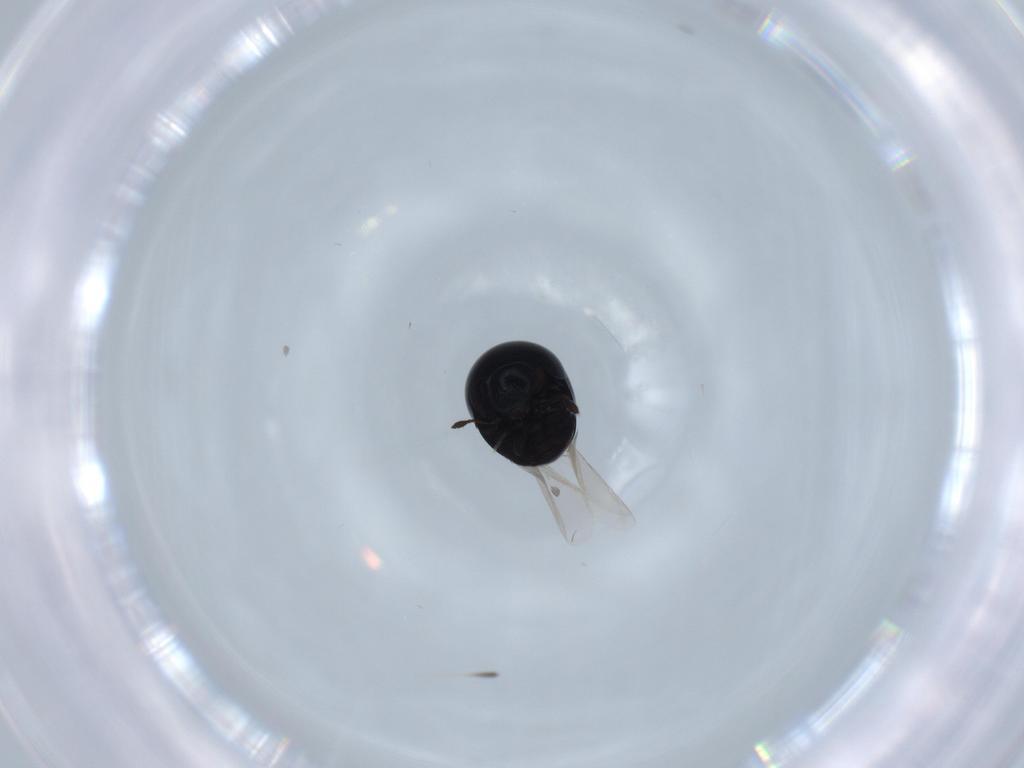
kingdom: Animalia
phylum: Arthropoda
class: Insecta
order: Coleoptera
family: Cybocephalidae
